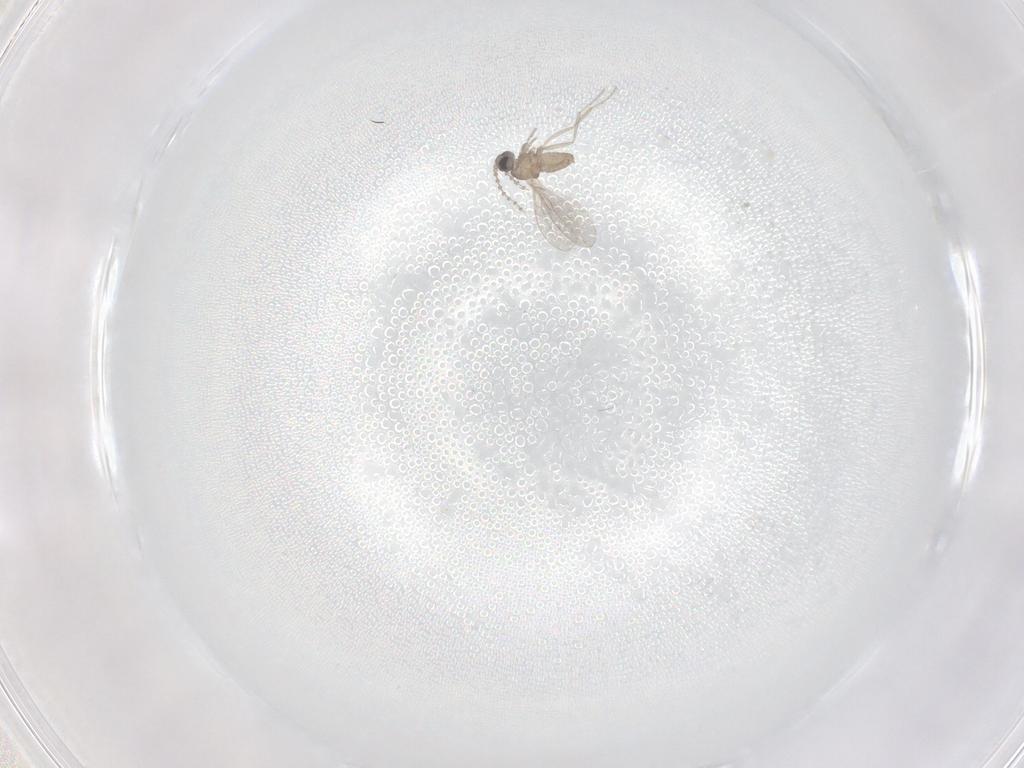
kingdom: Animalia
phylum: Arthropoda
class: Insecta
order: Diptera
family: Cecidomyiidae
